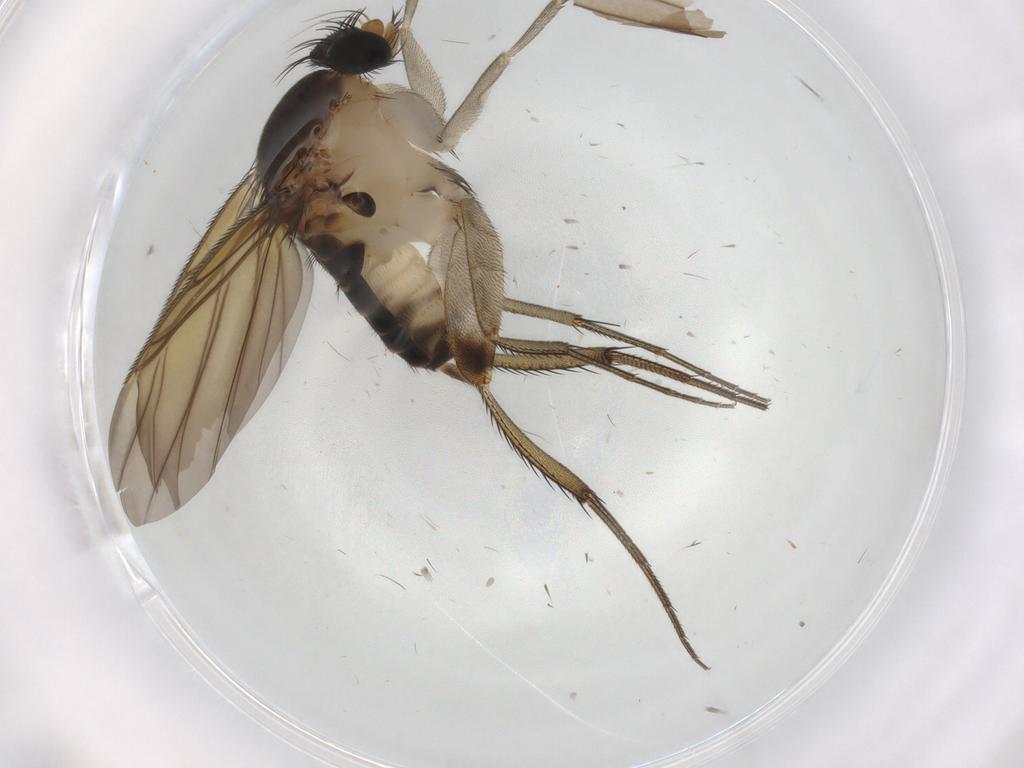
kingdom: Animalia
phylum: Arthropoda
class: Insecta
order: Diptera
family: Phoridae
